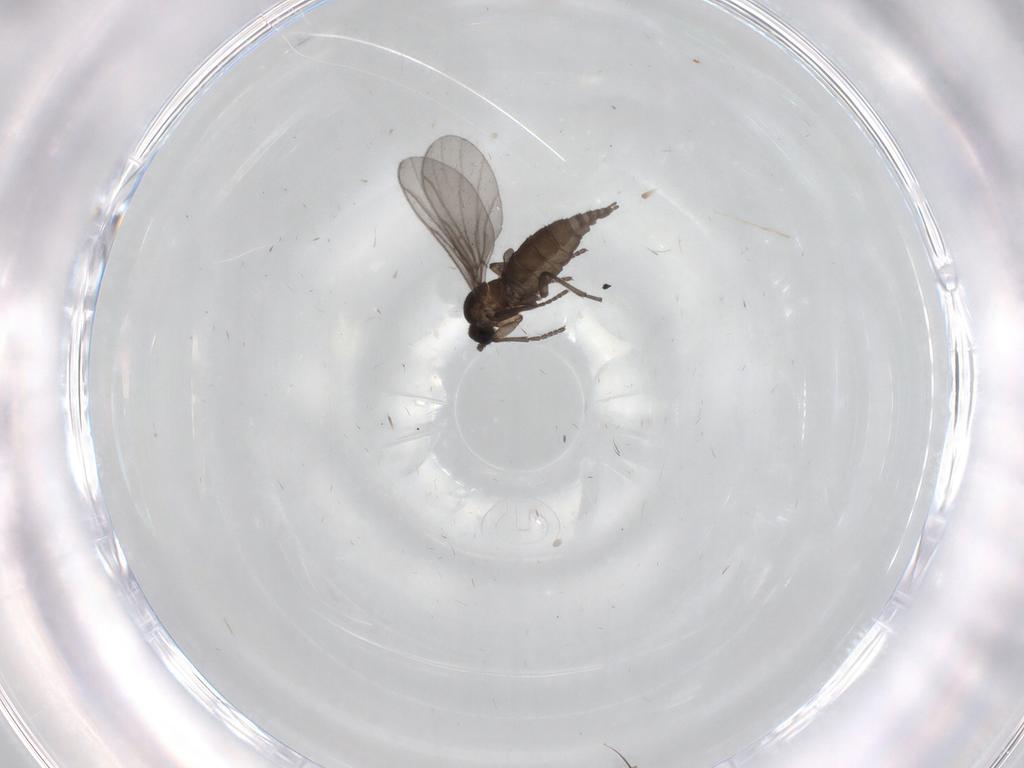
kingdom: Animalia
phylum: Arthropoda
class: Insecta
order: Diptera
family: Ceratopogonidae
